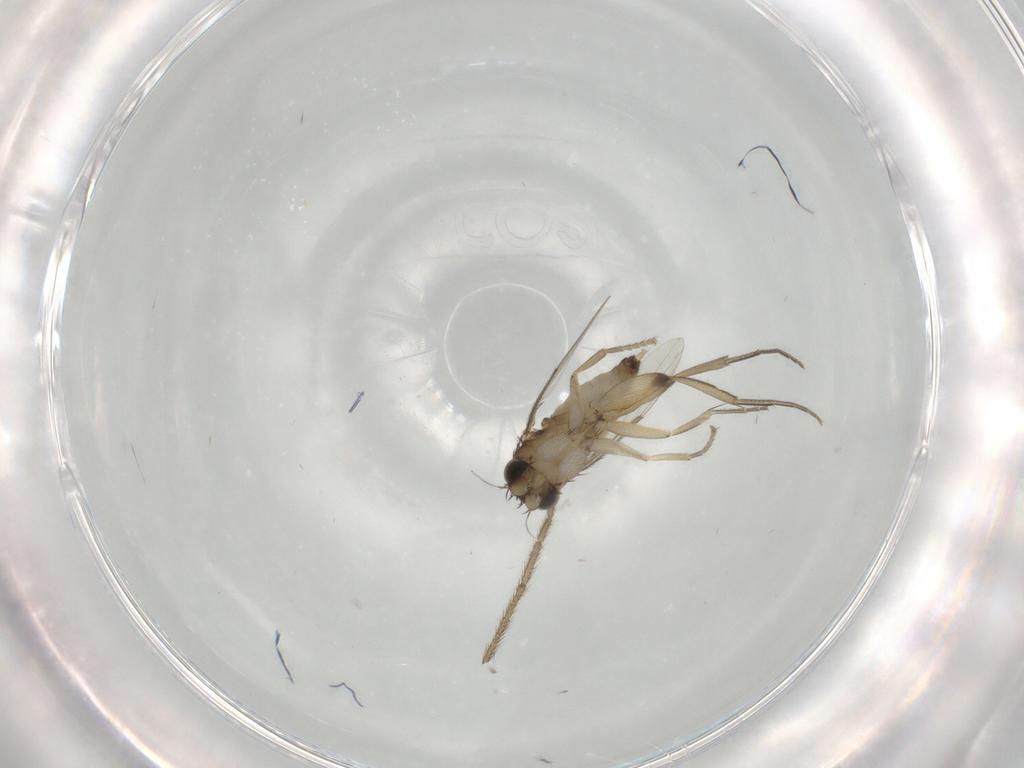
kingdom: Animalia
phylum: Arthropoda
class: Insecta
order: Diptera
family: Phoridae
